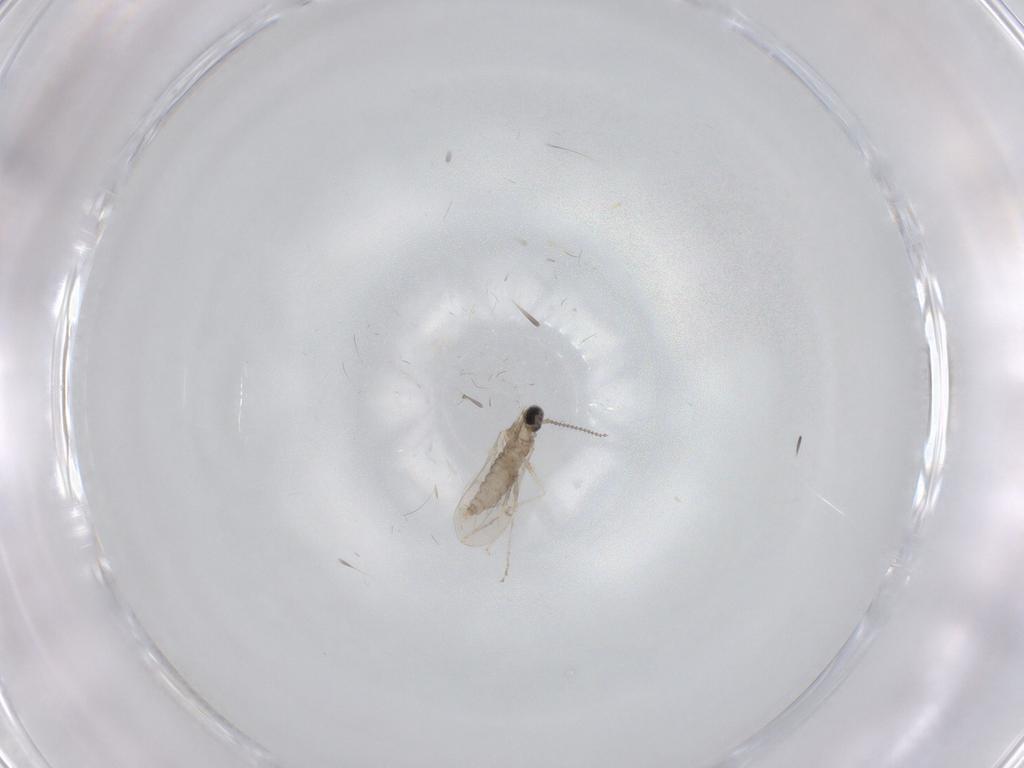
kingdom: Animalia
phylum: Arthropoda
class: Insecta
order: Diptera
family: Cecidomyiidae
